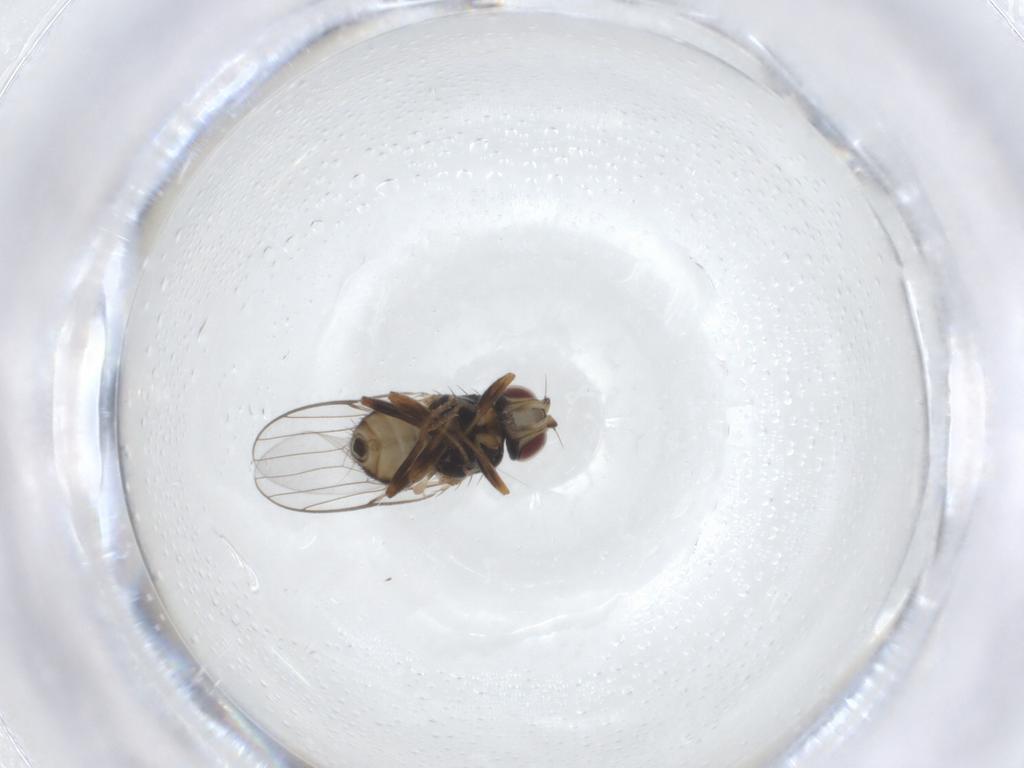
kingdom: Animalia
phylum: Arthropoda
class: Insecta
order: Diptera
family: Chloropidae
